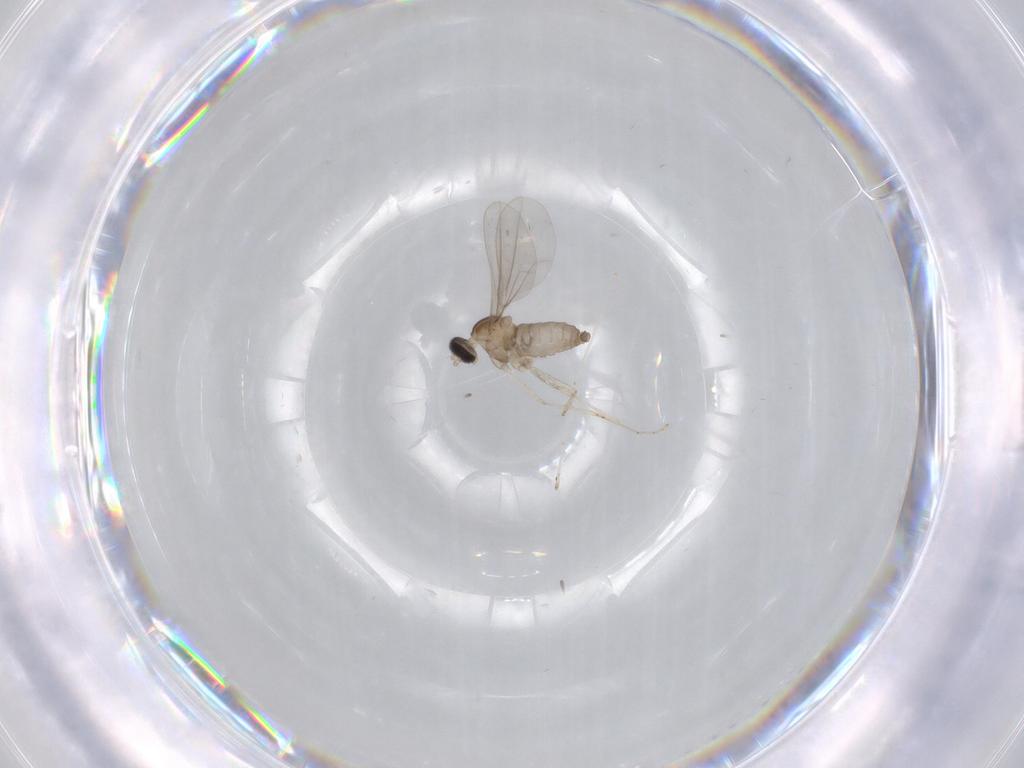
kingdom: Animalia
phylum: Arthropoda
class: Insecta
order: Diptera
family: Cecidomyiidae
